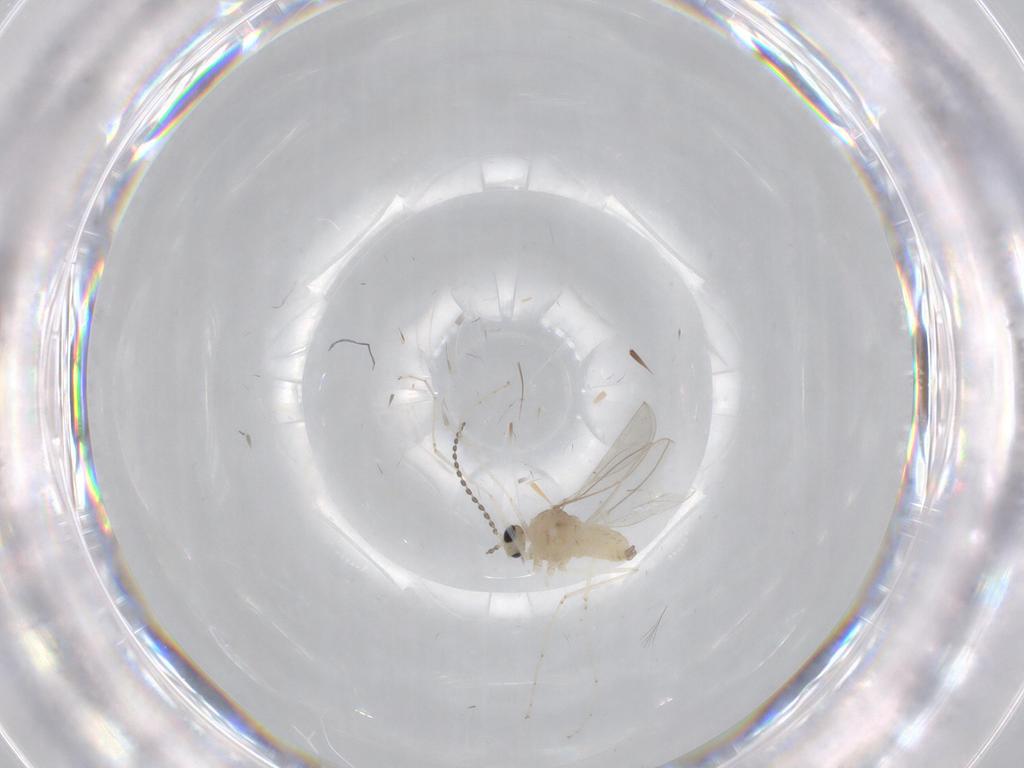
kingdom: Animalia
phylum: Arthropoda
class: Insecta
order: Diptera
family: Cecidomyiidae
